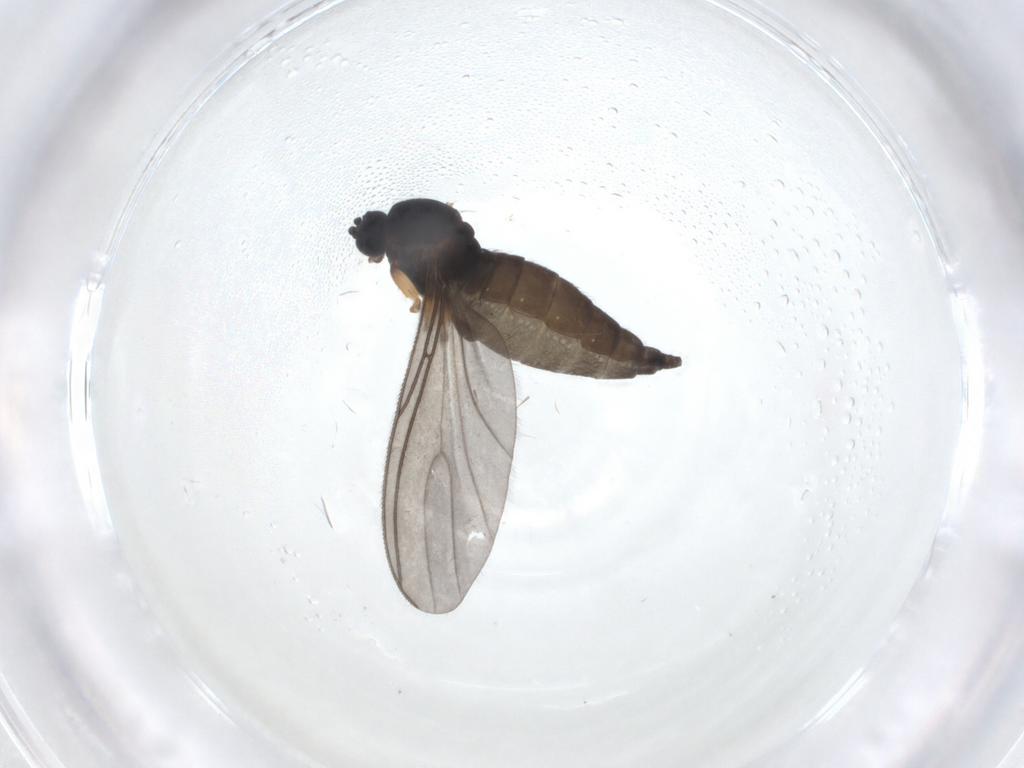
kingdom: Animalia
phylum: Arthropoda
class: Insecta
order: Diptera
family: Sciaridae
